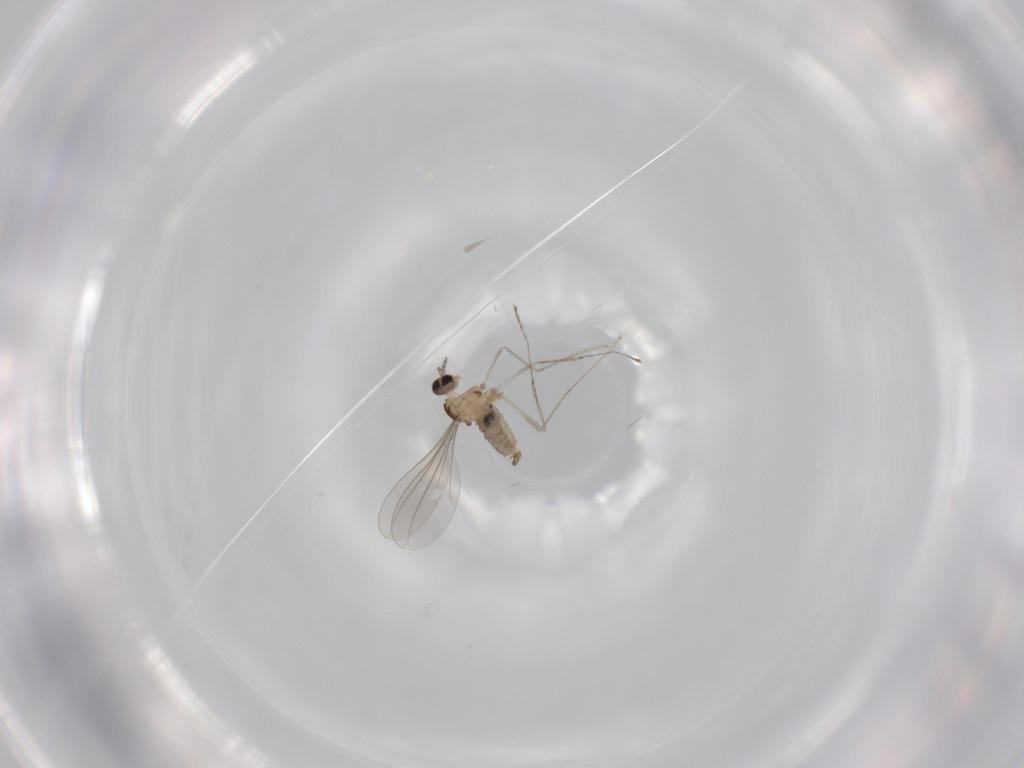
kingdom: Animalia
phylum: Arthropoda
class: Insecta
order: Diptera
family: Cecidomyiidae
